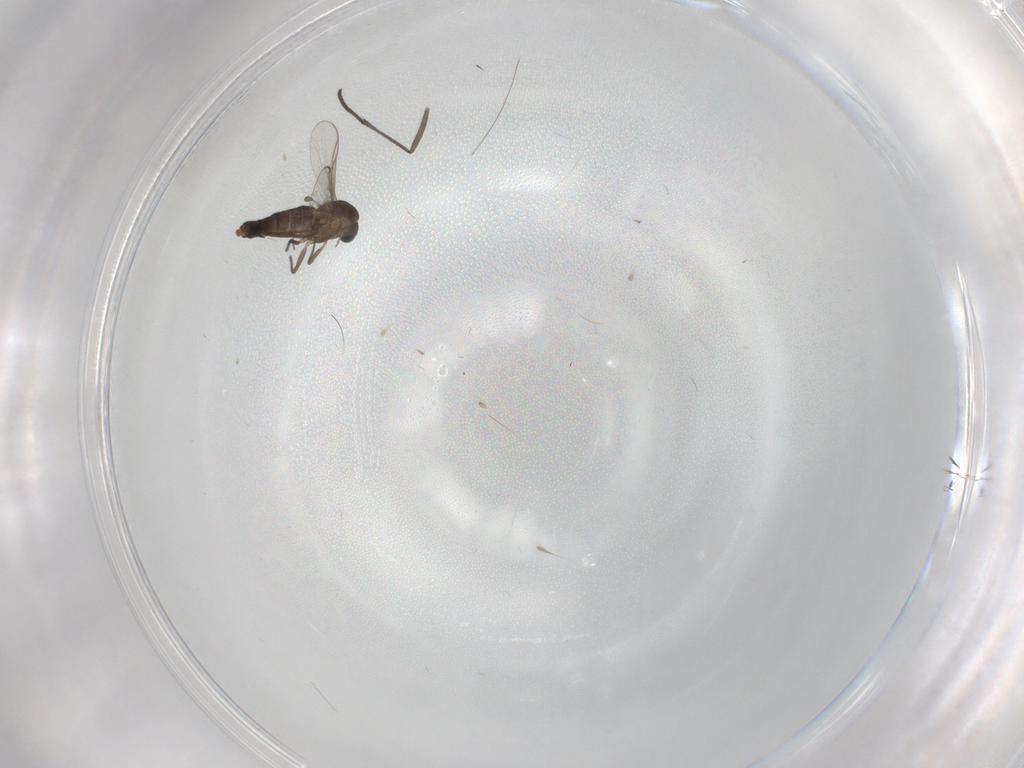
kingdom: Animalia
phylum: Arthropoda
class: Insecta
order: Diptera
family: Chironomidae
